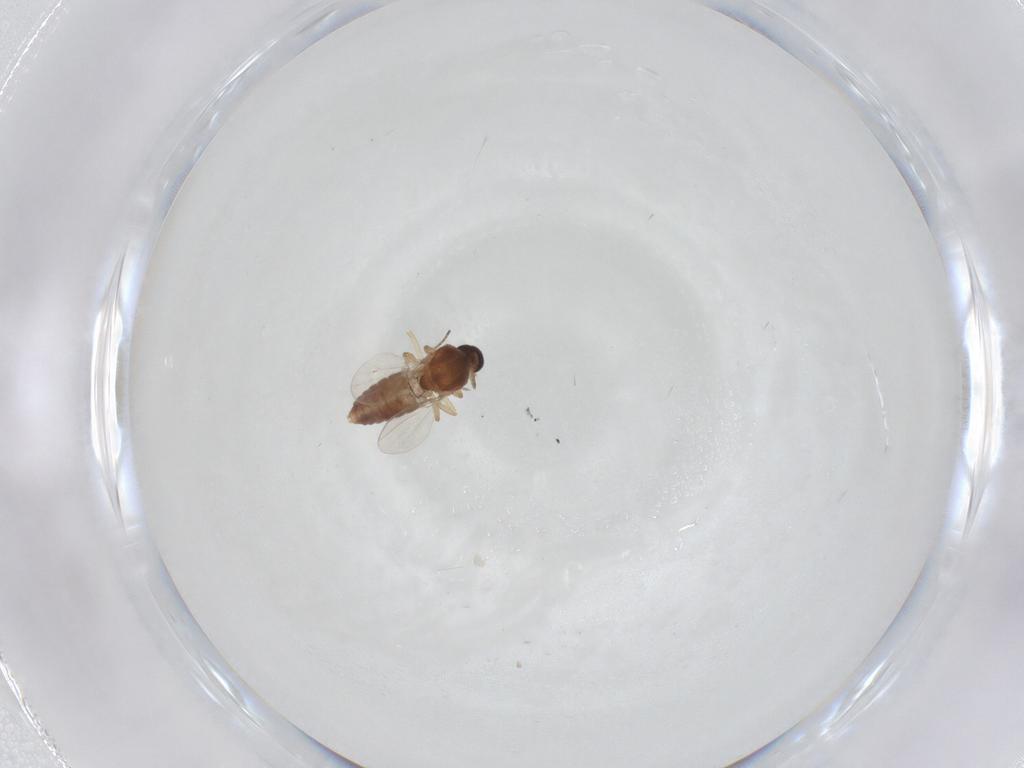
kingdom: Animalia
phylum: Arthropoda
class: Insecta
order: Diptera
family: Ceratopogonidae
